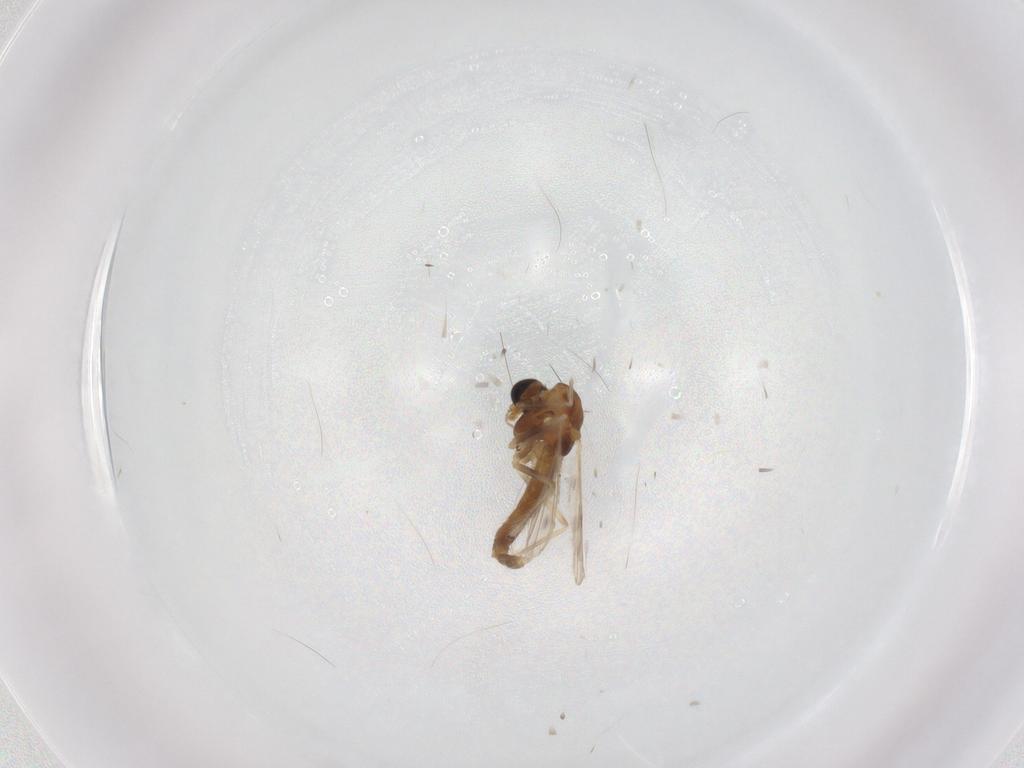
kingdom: Animalia
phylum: Arthropoda
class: Insecta
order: Diptera
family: Chironomidae
